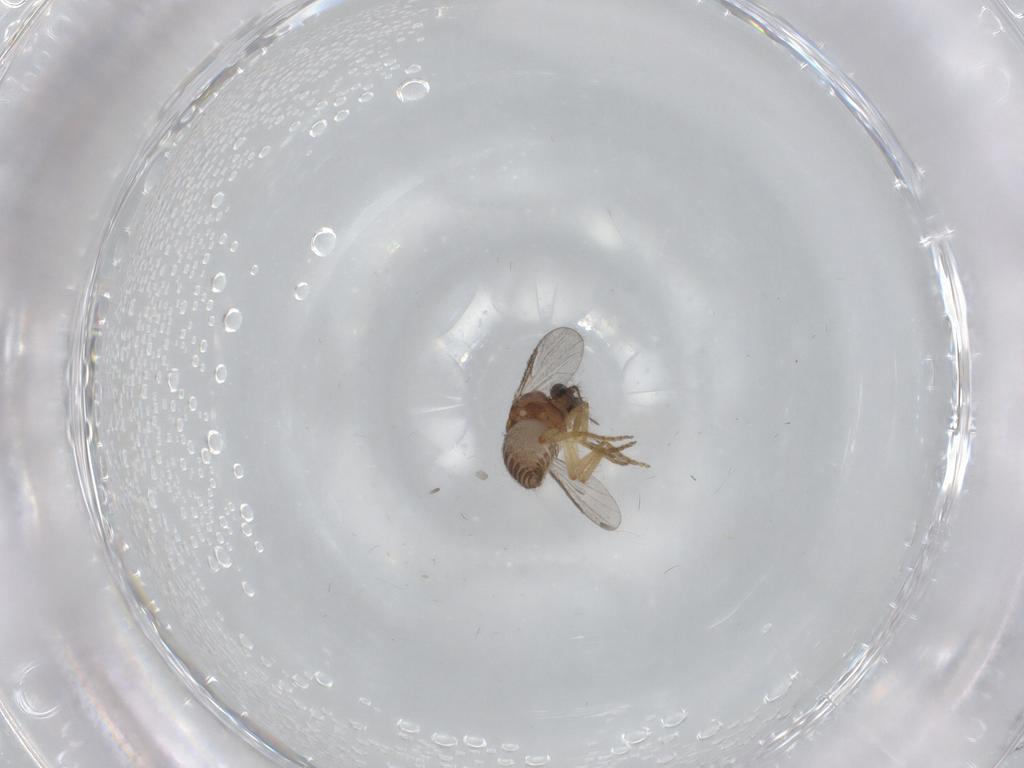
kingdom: Animalia
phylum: Arthropoda
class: Insecta
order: Diptera
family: Ceratopogonidae
